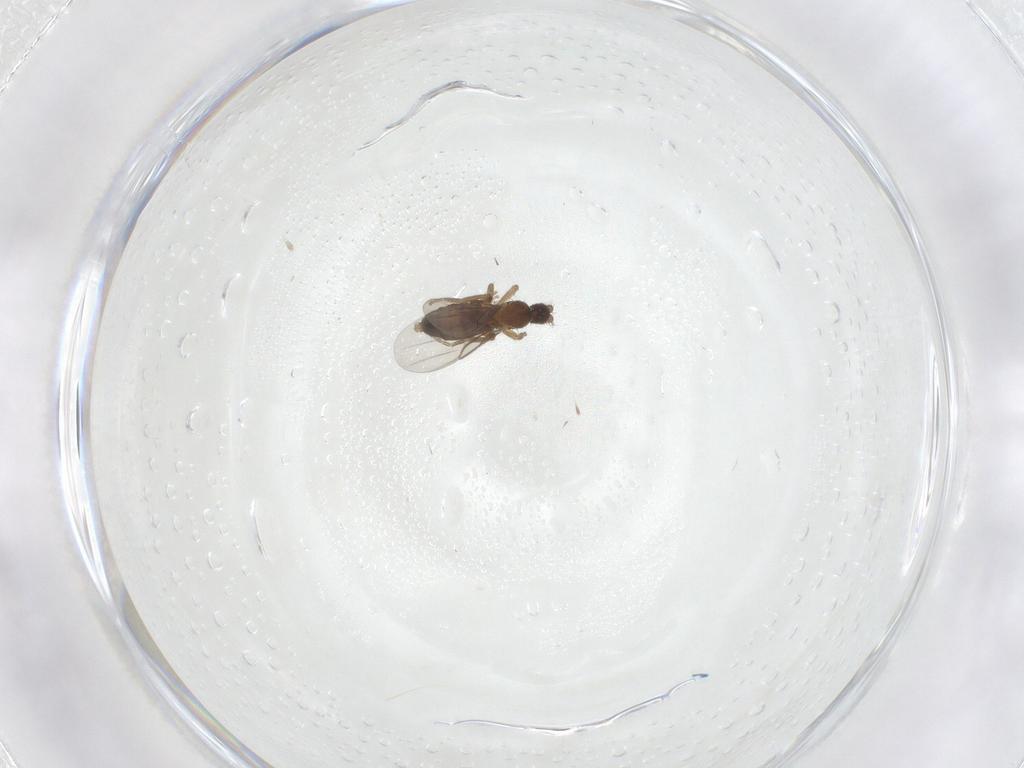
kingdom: Animalia
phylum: Arthropoda
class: Insecta
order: Diptera
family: Phoridae
